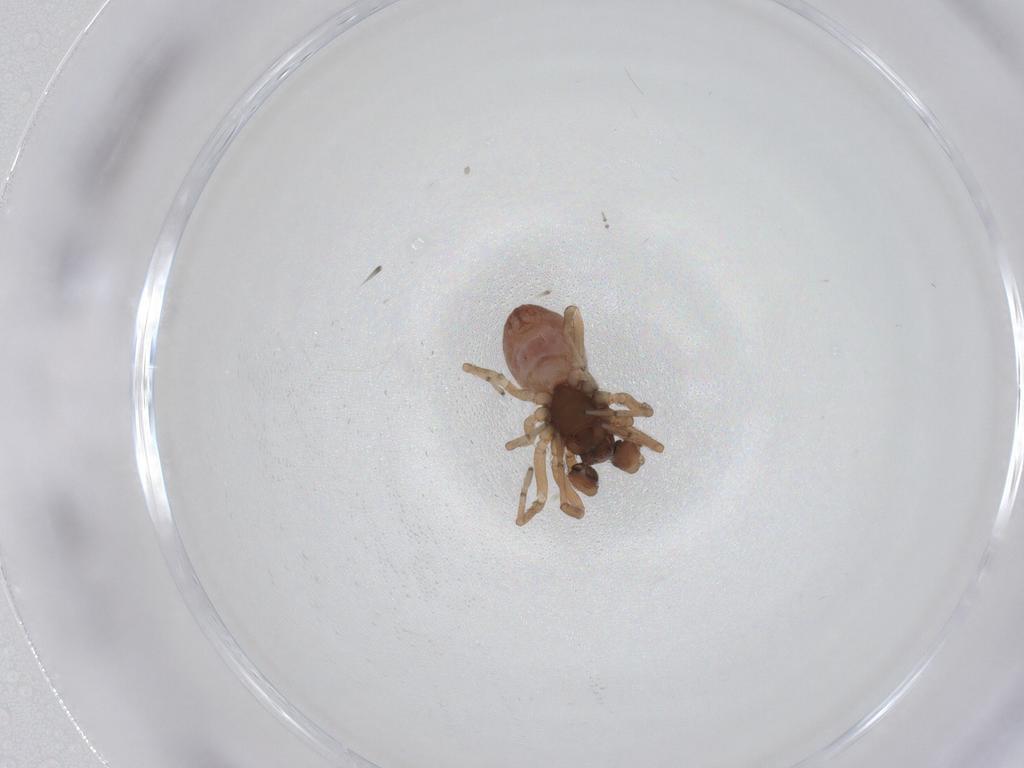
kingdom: Animalia
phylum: Arthropoda
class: Arachnida
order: Araneae
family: Dictynidae
